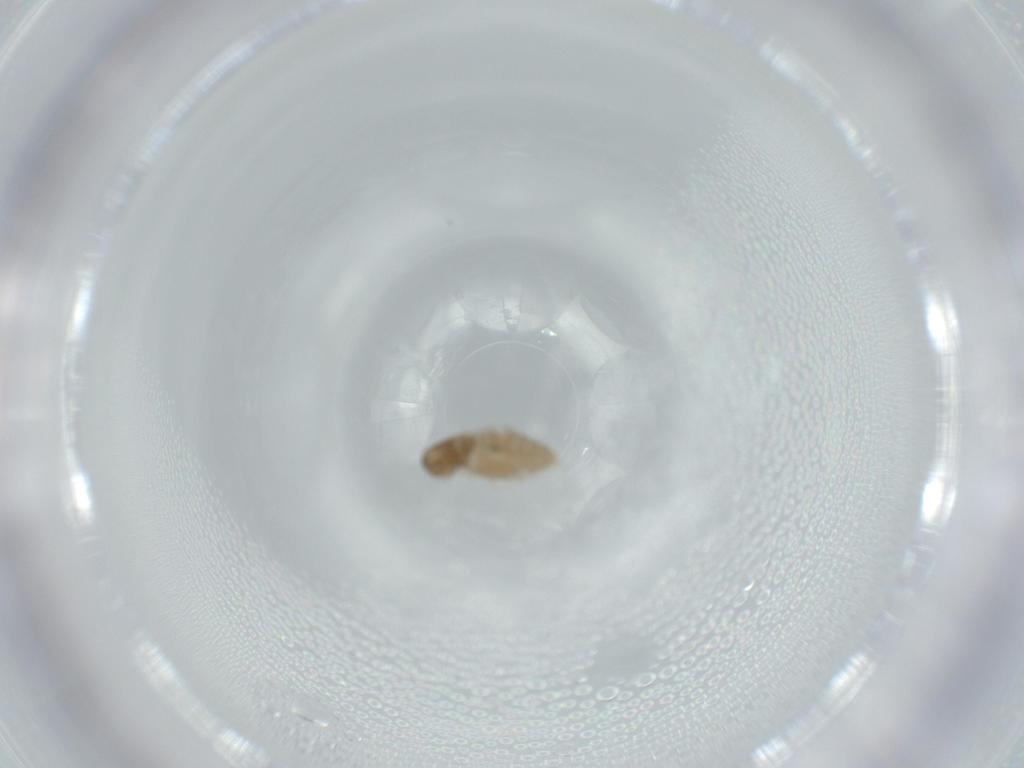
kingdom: Animalia
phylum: Arthropoda
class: Insecta
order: Diptera
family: Cecidomyiidae
